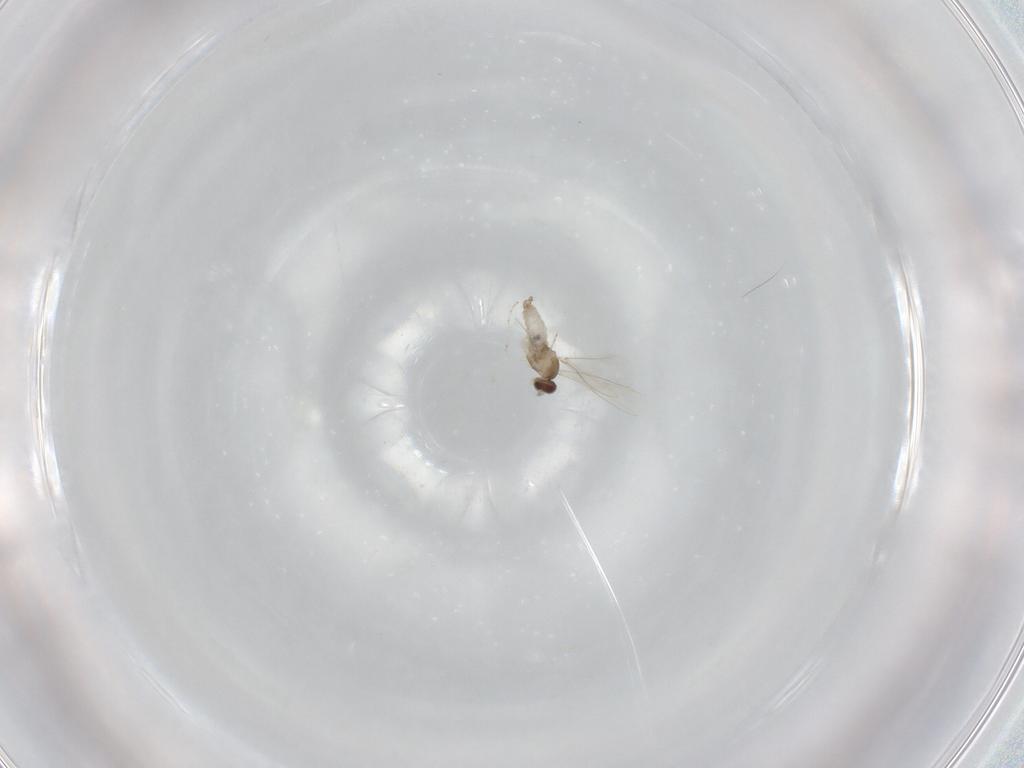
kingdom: Animalia
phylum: Arthropoda
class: Insecta
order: Diptera
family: Cecidomyiidae
